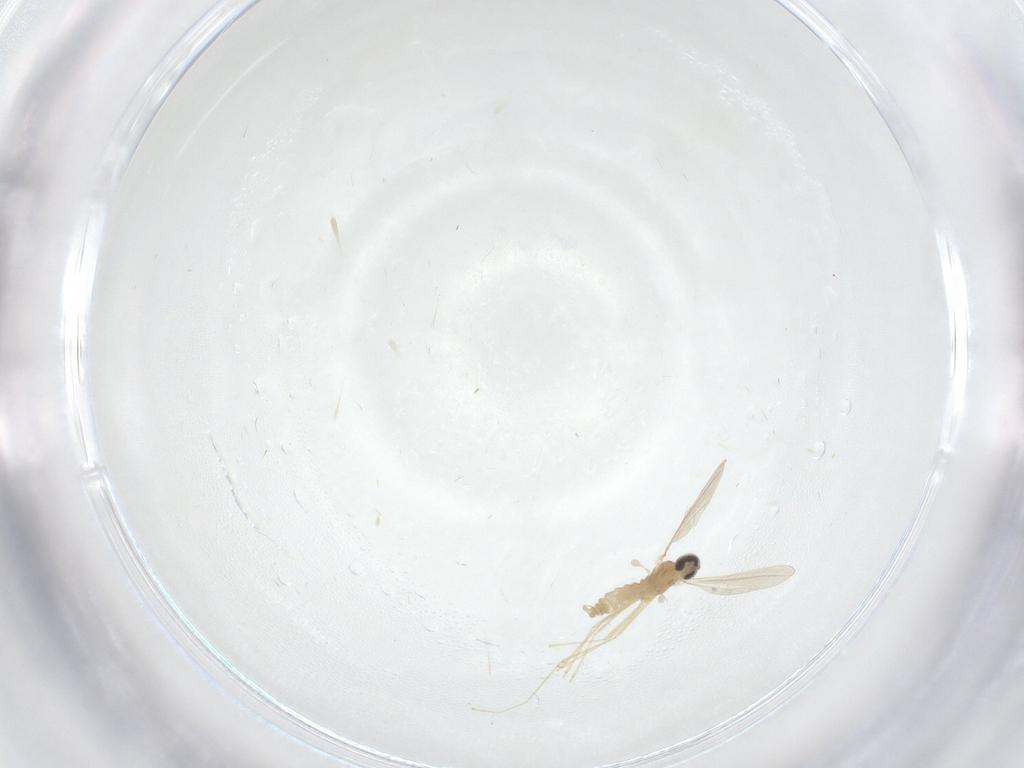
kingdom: Animalia
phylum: Arthropoda
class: Insecta
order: Diptera
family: Cecidomyiidae
